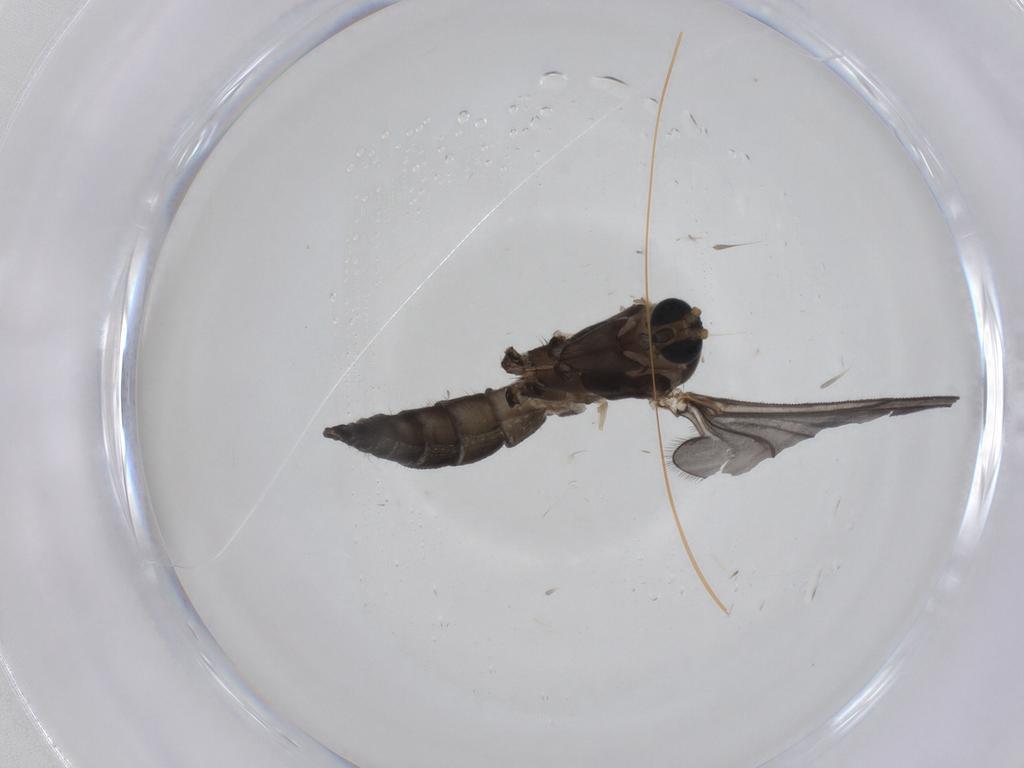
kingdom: Animalia
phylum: Arthropoda
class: Insecta
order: Diptera
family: Sciaridae
